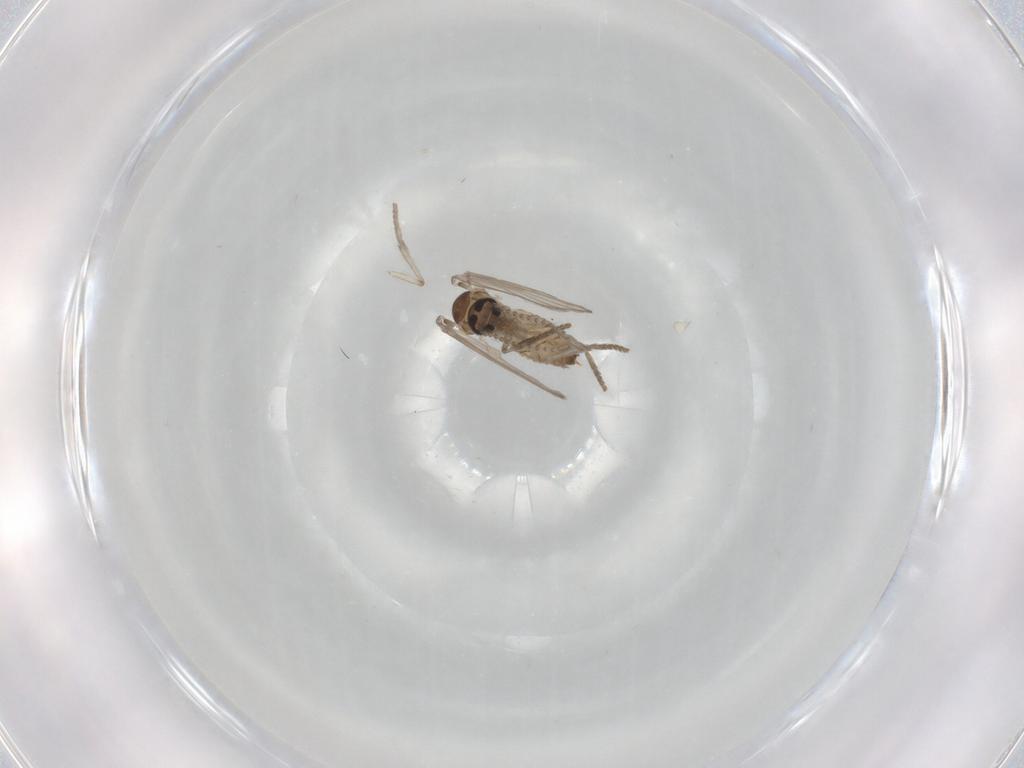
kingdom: Animalia
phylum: Arthropoda
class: Insecta
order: Diptera
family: Psychodidae
